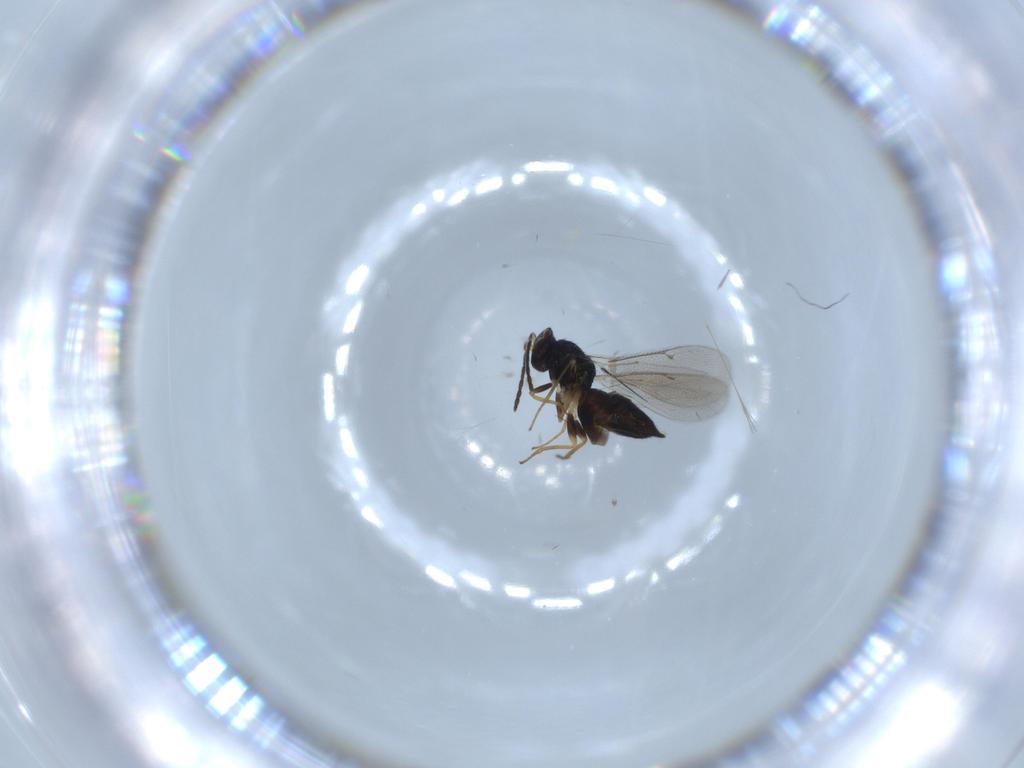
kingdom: Animalia
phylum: Arthropoda
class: Insecta
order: Hymenoptera
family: Eulophidae
